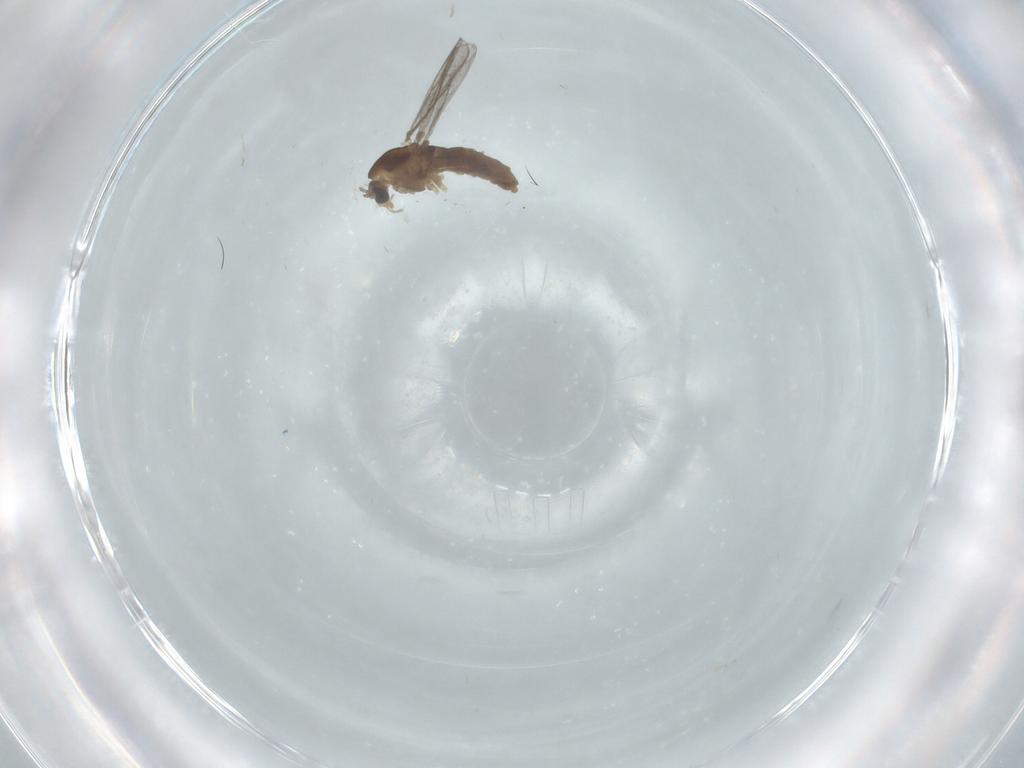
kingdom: Animalia
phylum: Arthropoda
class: Insecta
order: Diptera
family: Chironomidae
